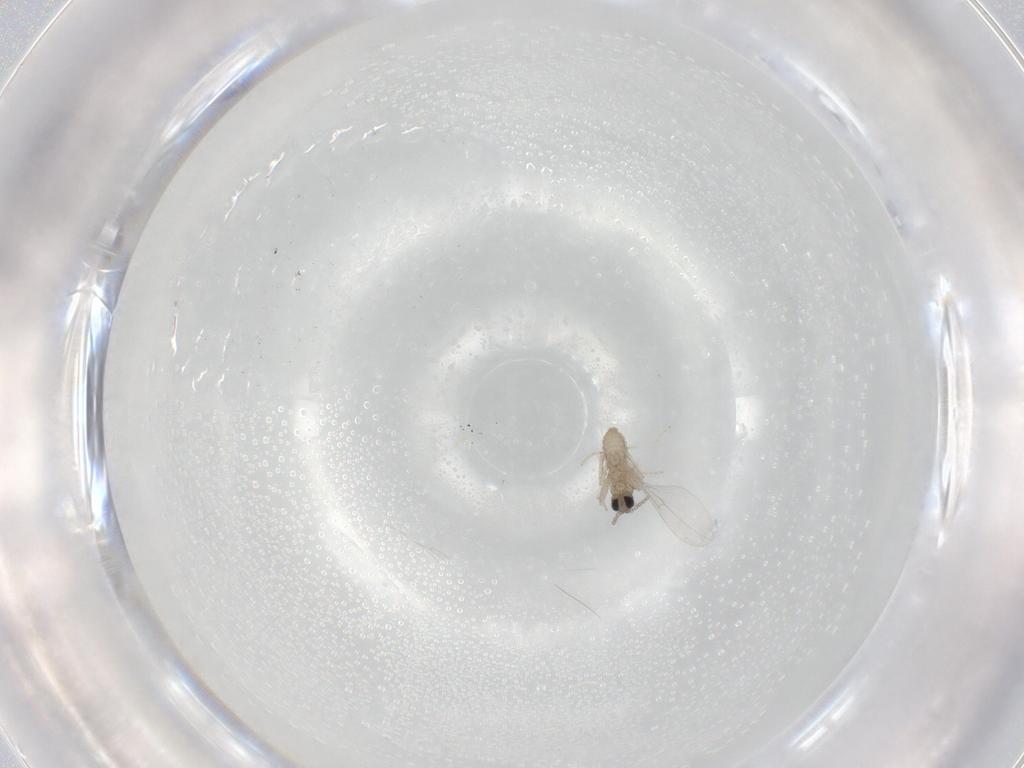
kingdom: Animalia
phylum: Arthropoda
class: Insecta
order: Diptera
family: Cecidomyiidae
